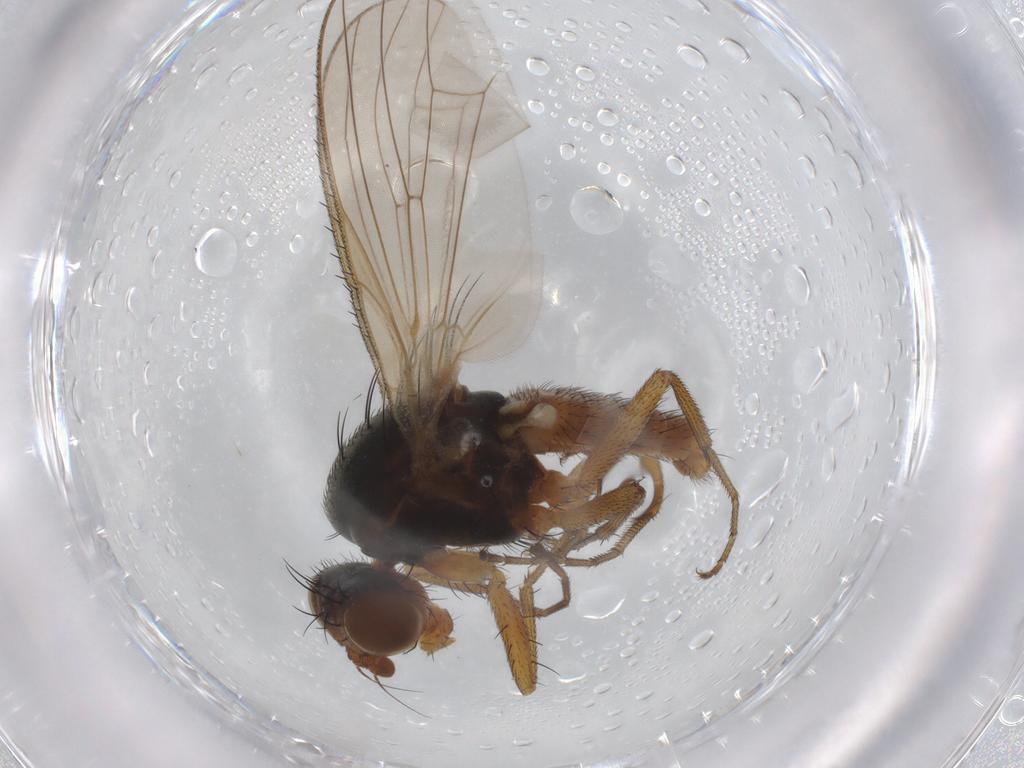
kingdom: Animalia
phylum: Arthropoda
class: Insecta
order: Diptera
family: Heleomyzidae
